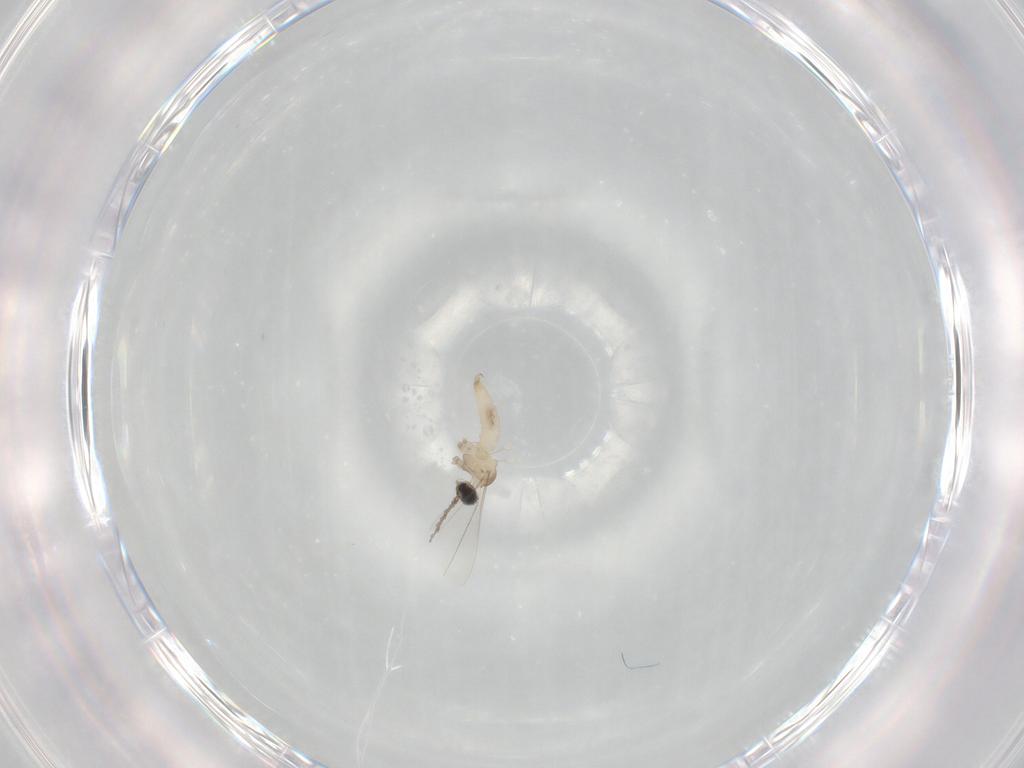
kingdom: Animalia
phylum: Arthropoda
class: Insecta
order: Diptera
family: Cecidomyiidae
